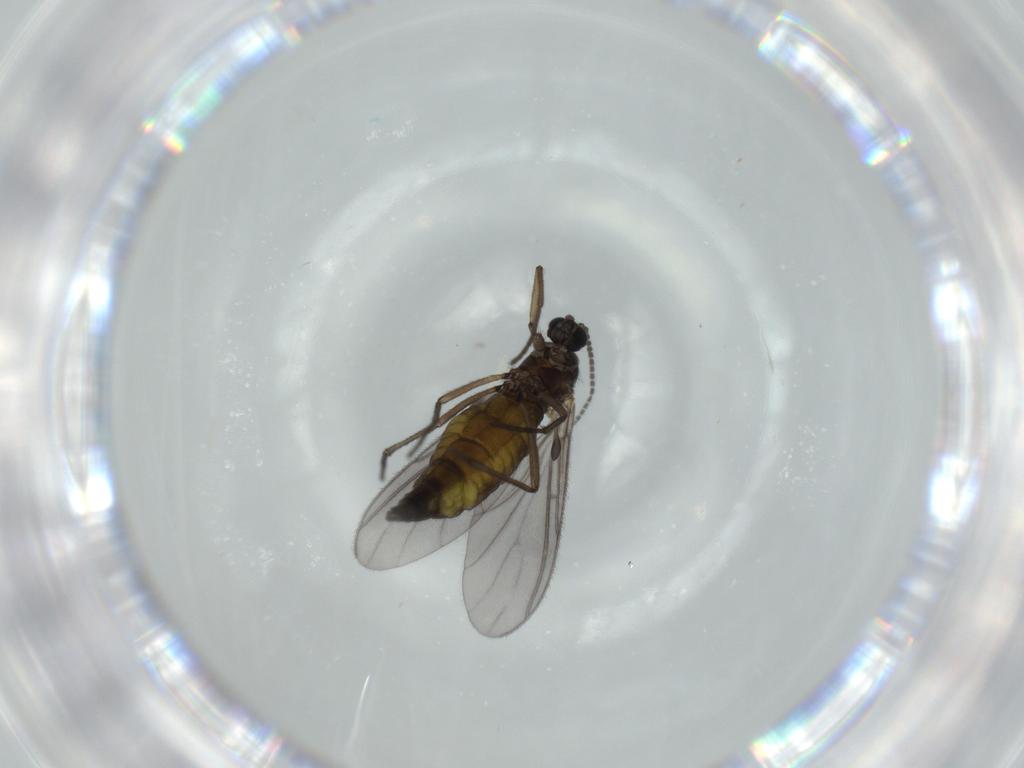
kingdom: Animalia
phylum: Arthropoda
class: Insecta
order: Diptera
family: Sciaridae
